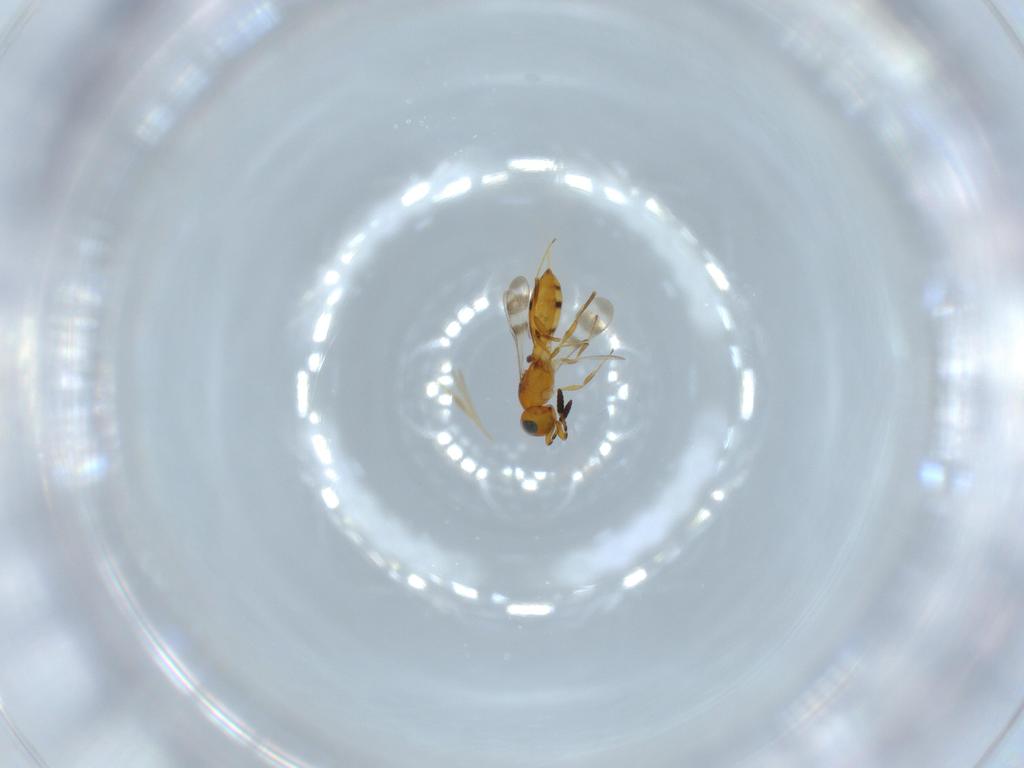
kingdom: Animalia
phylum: Arthropoda
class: Insecta
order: Hymenoptera
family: Scelionidae
